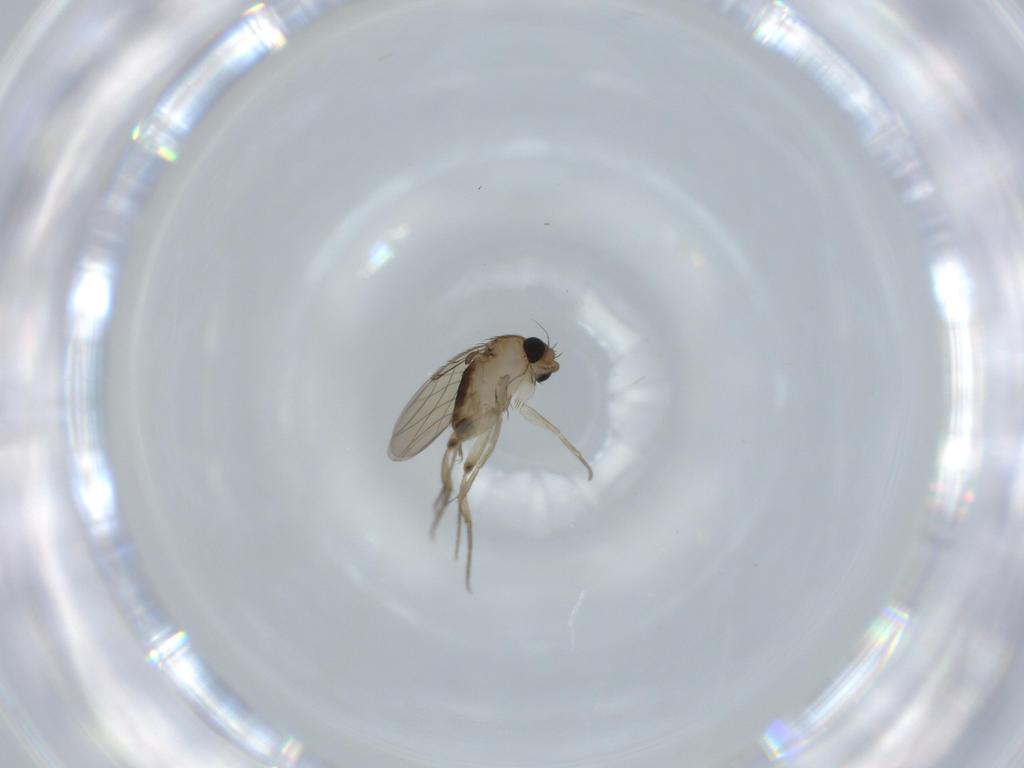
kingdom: Animalia
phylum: Arthropoda
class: Insecta
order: Diptera
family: Phoridae
